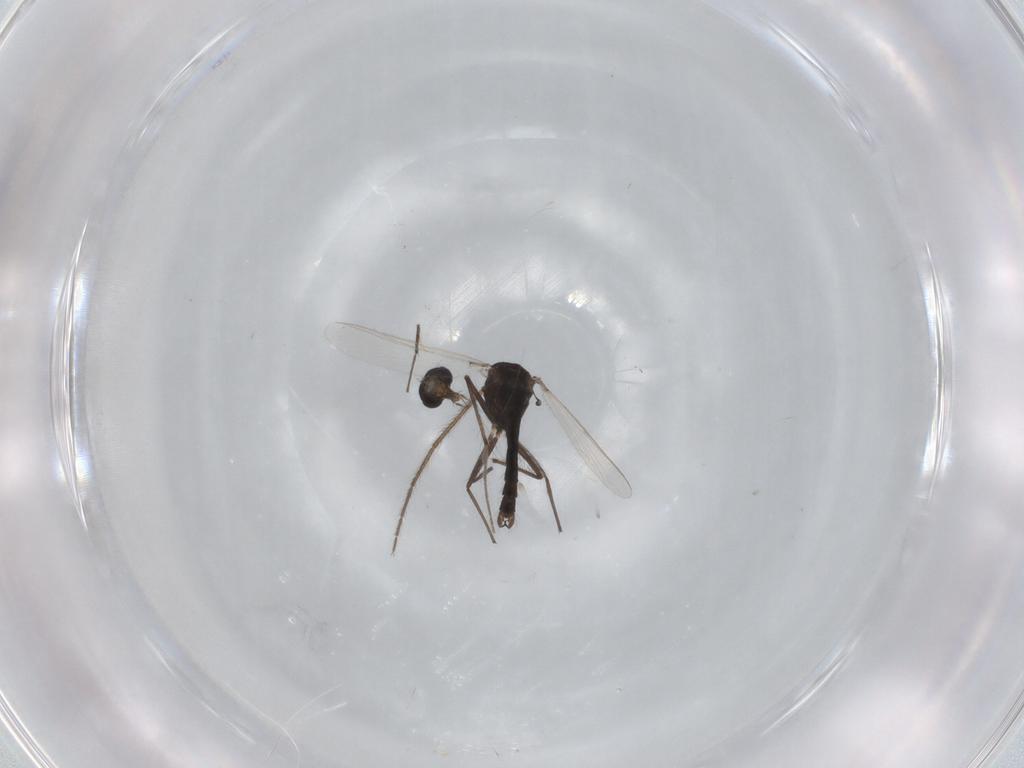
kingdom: Animalia
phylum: Arthropoda
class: Insecta
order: Diptera
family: Chironomidae
